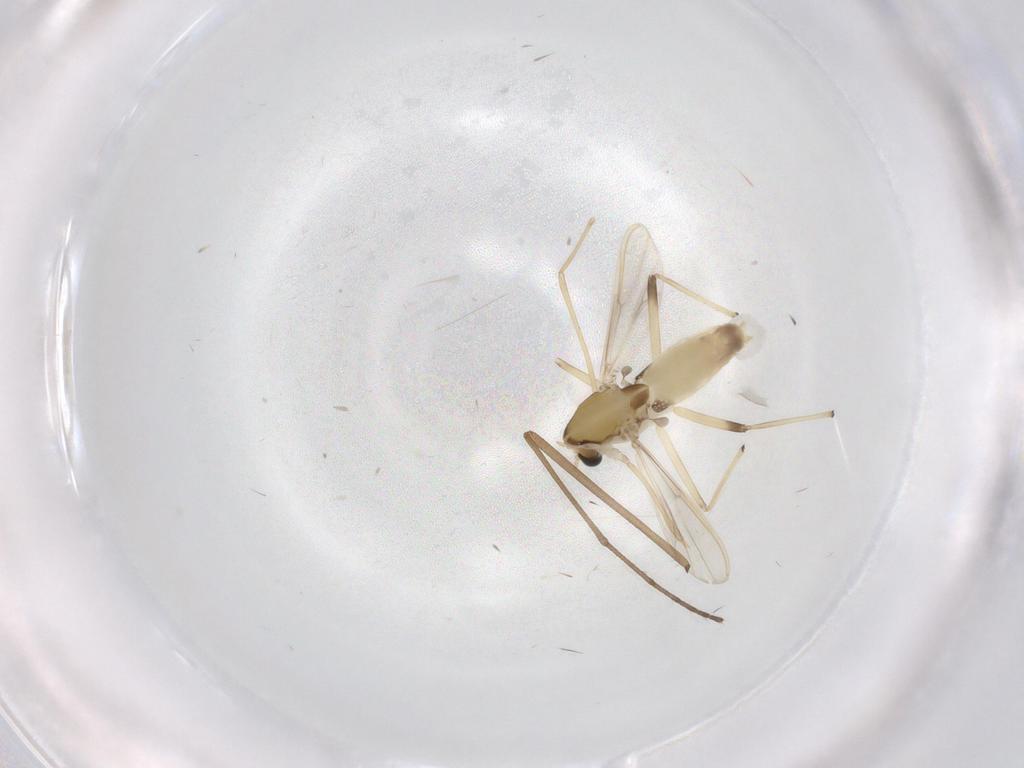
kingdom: Animalia
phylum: Arthropoda
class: Insecta
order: Diptera
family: Chironomidae
